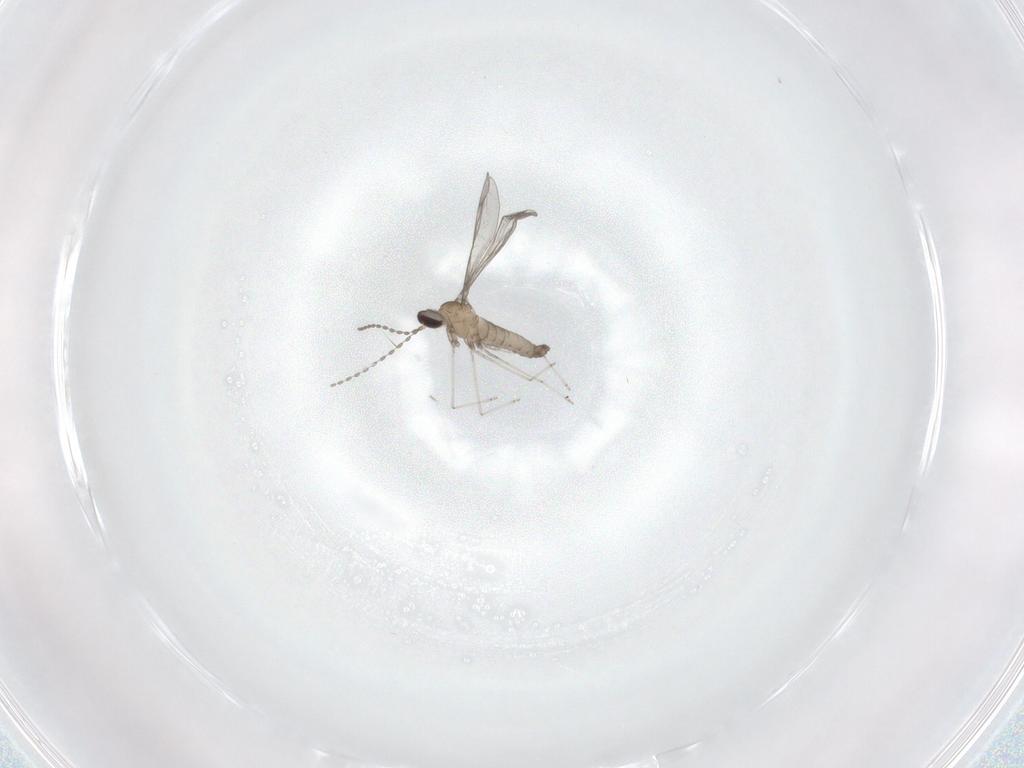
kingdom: Animalia
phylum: Arthropoda
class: Insecta
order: Diptera
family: Cecidomyiidae
